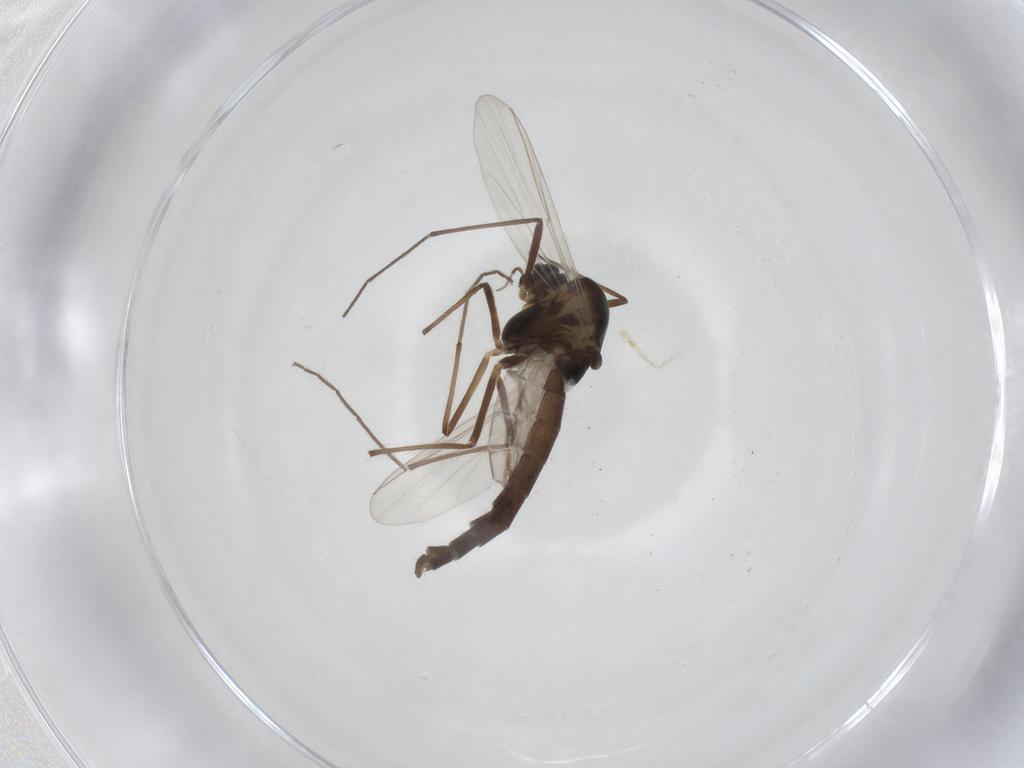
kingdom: Animalia
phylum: Arthropoda
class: Insecta
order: Diptera
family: Chironomidae
